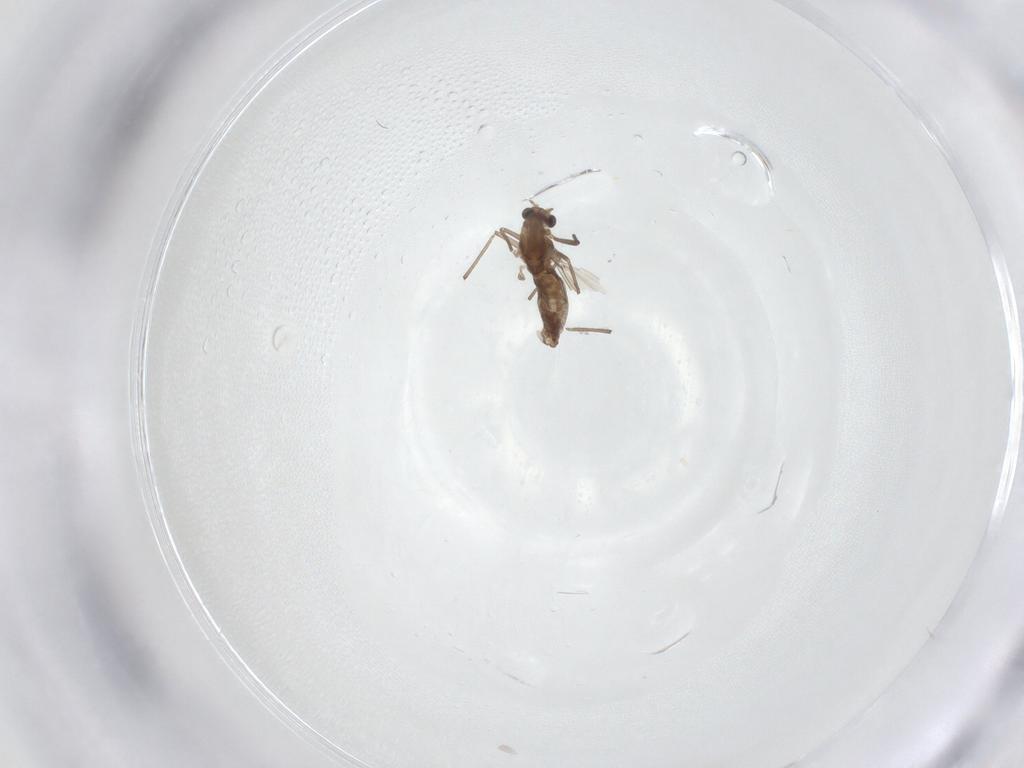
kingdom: Animalia
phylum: Arthropoda
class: Insecta
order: Diptera
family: Chironomidae
